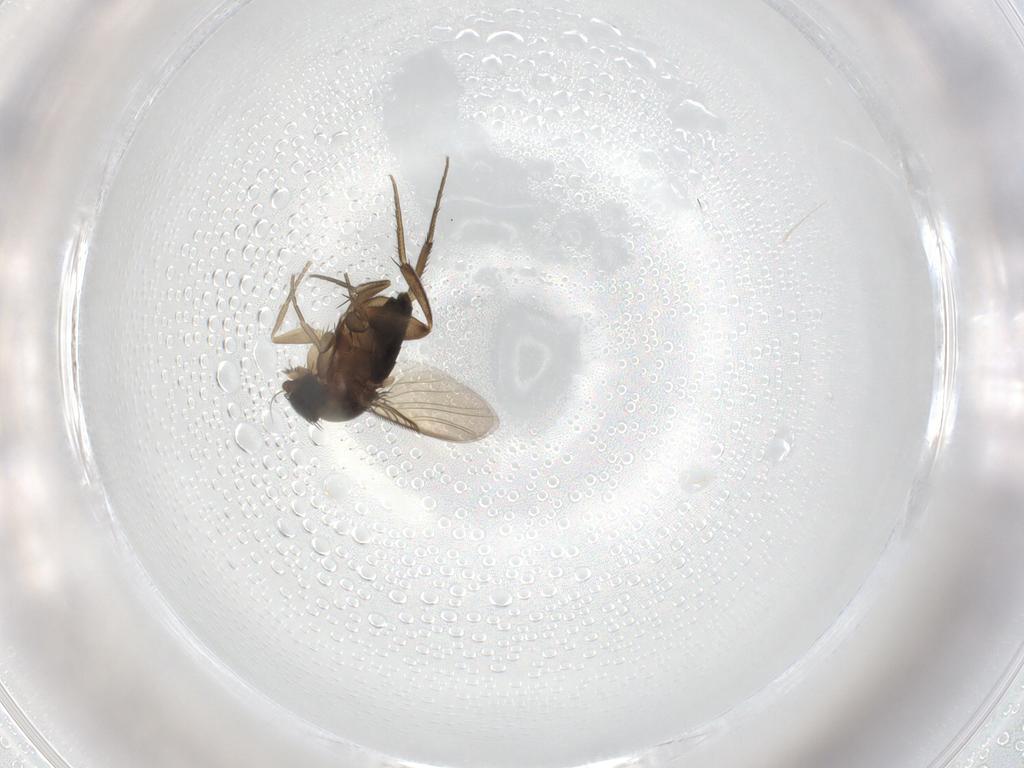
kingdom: Animalia
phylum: Arthropoda
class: Insecta
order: Diptera
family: Phoridae
